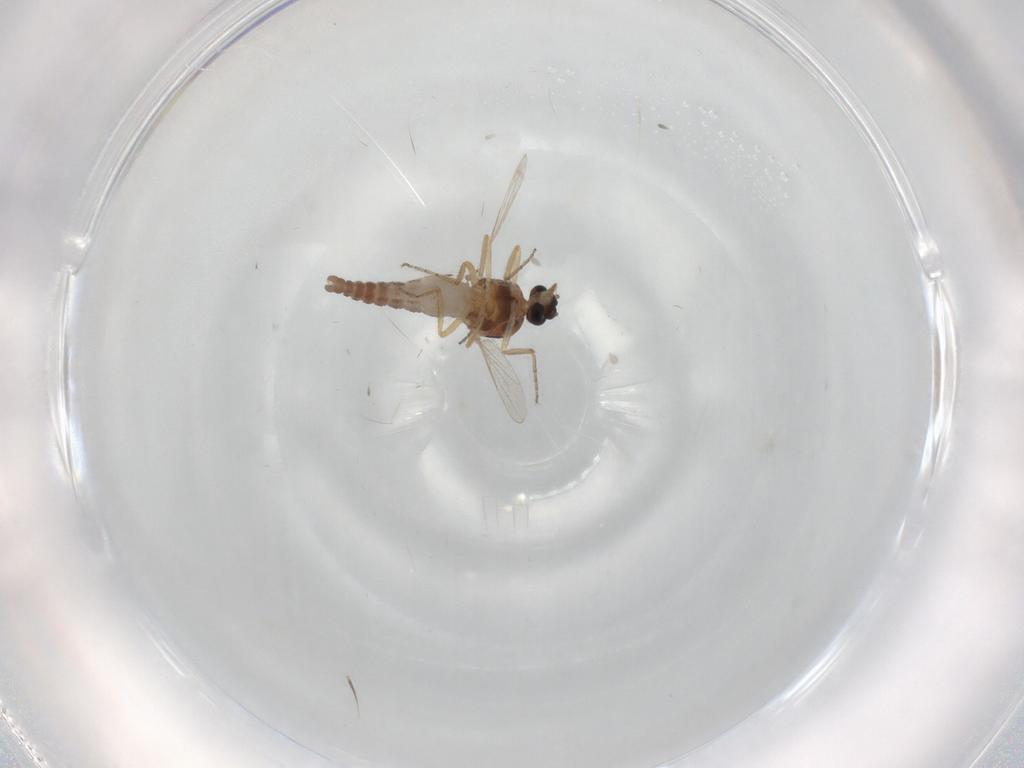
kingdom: Animalia
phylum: Arthropoda
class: Insecta
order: Diptera
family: Ceratopogonidae
